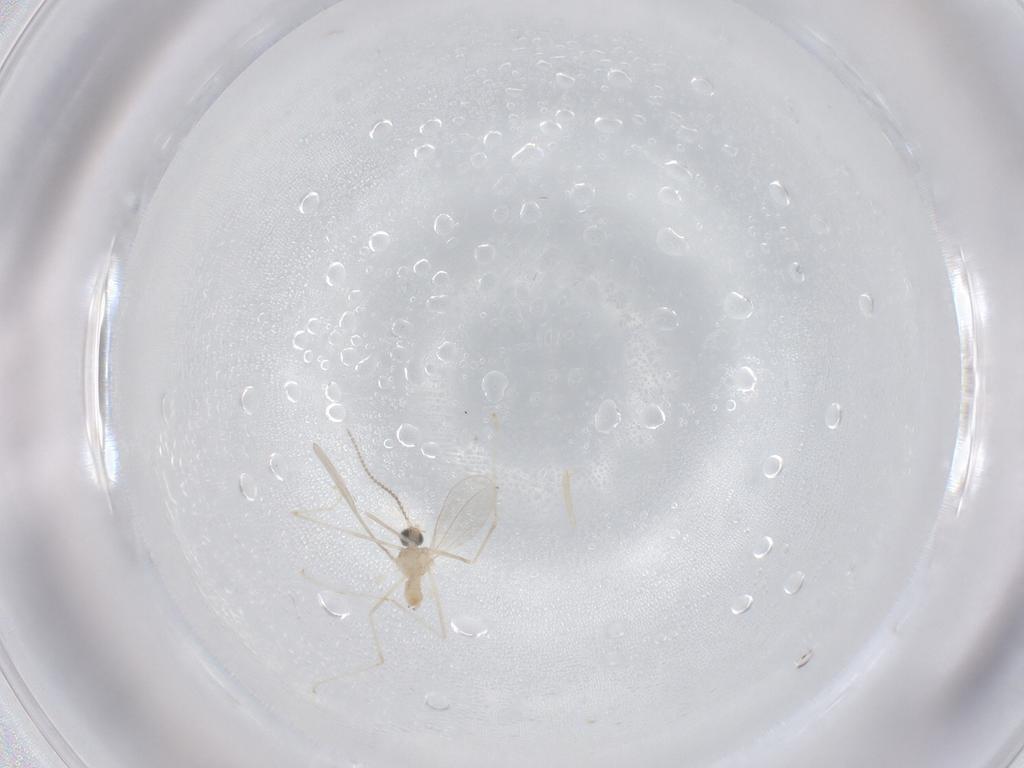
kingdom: Animalia
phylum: Arthropoda
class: Insecta
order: Diptera
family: Cecidomyiidae
